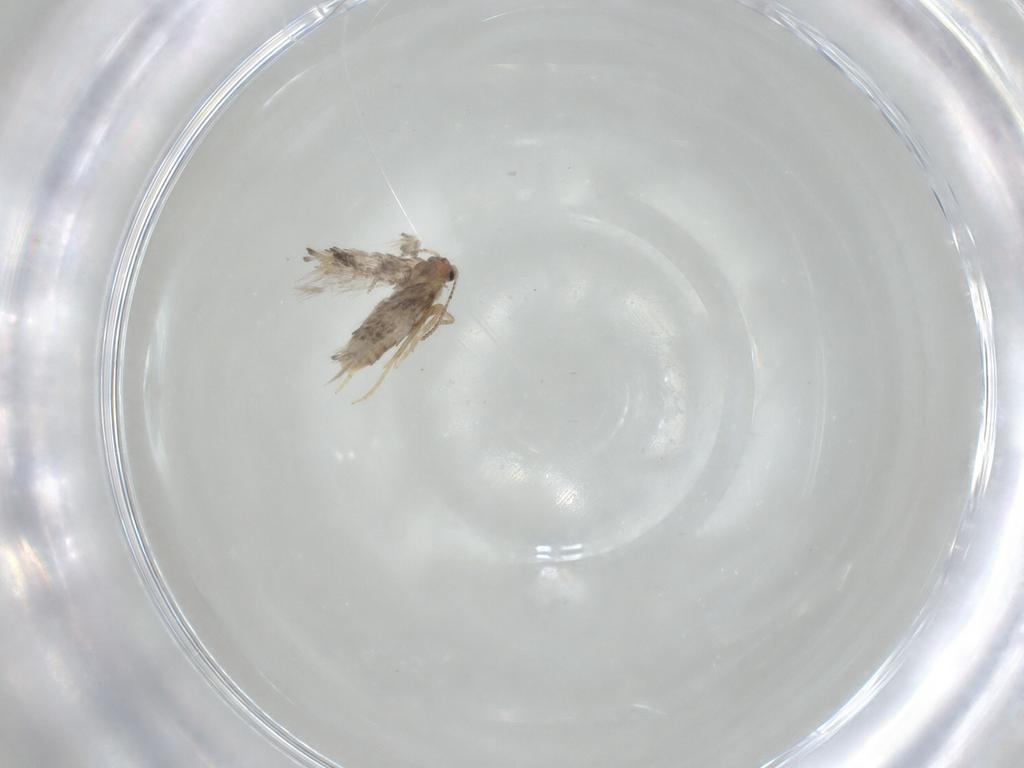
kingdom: Animalia
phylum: Arthropoda
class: Insecta
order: Lepidoptera
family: Nepticulidae
